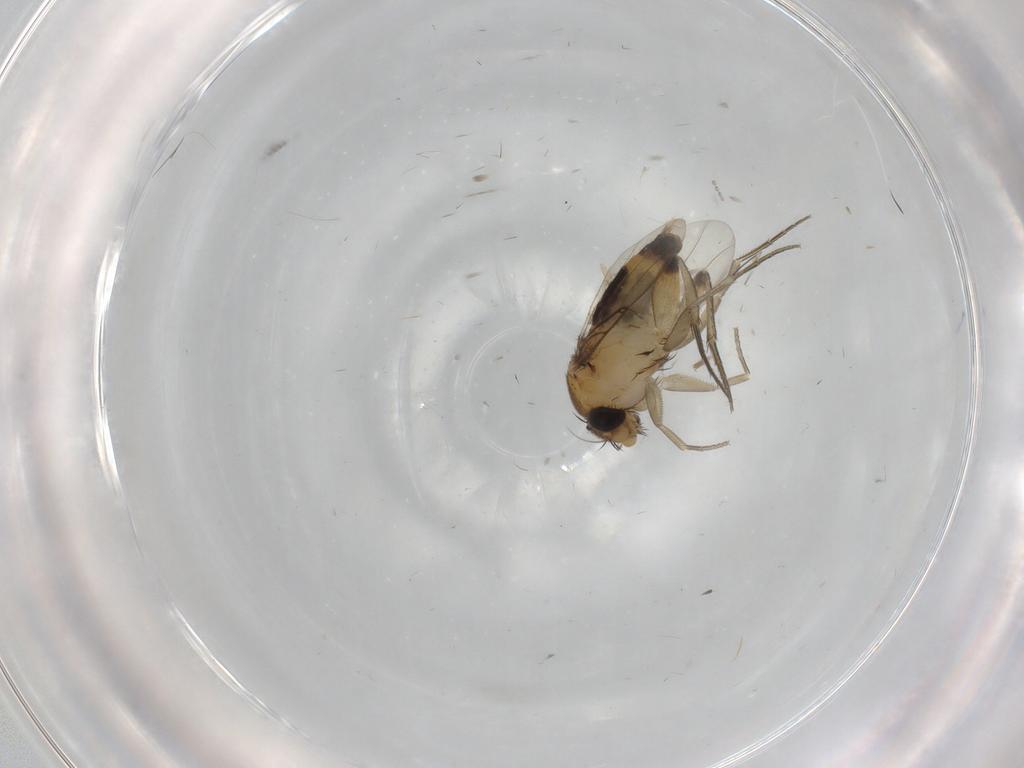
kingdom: Animalia
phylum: Arthropoda
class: Insecta
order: Diptera
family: Phoridae
